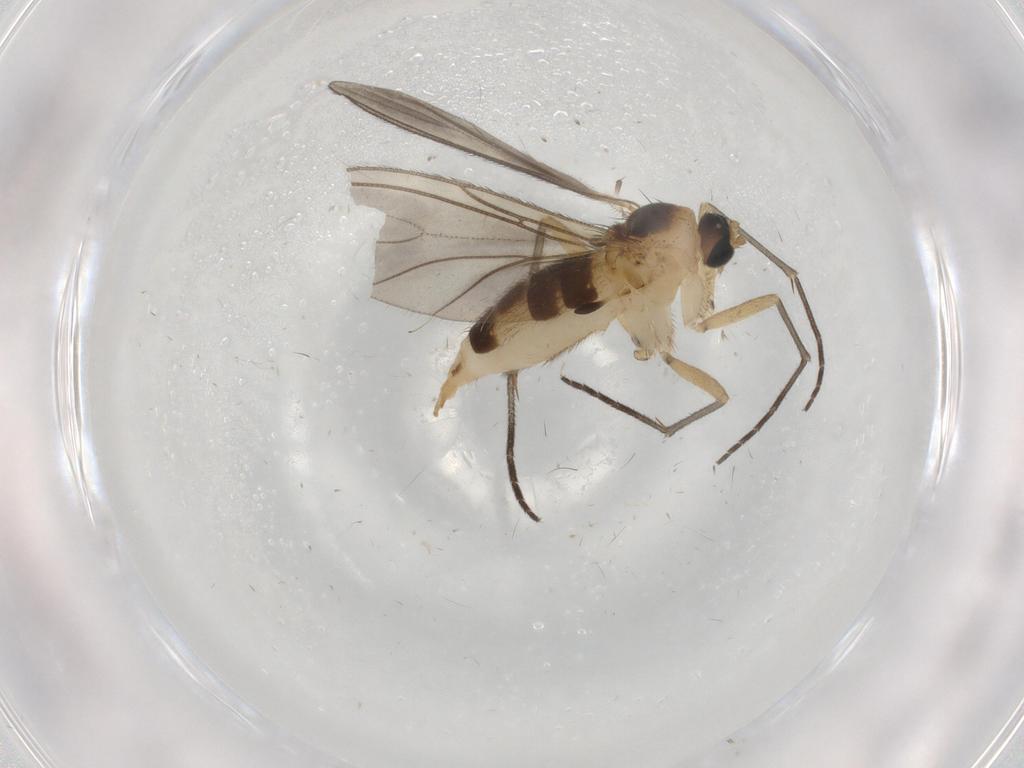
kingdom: Animalia
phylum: Arthropoda
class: Insecta
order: Diptera
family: Sciaridae
